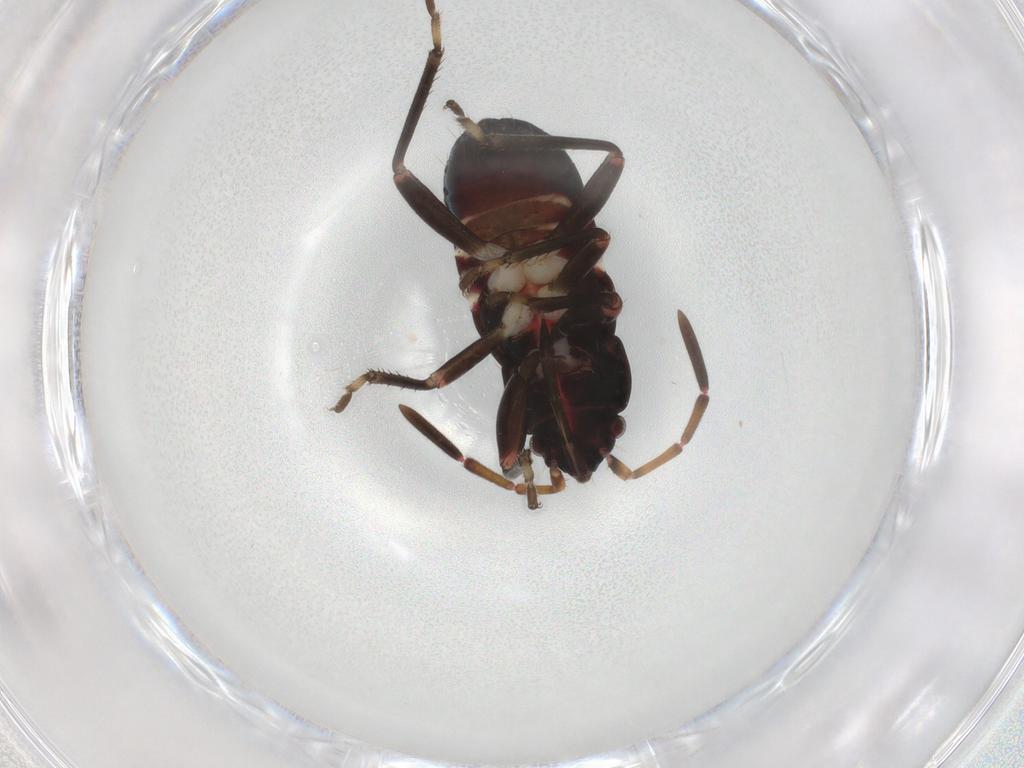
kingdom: Animalia
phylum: Arthropoda
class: Insecta
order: Hemiptera
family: Rhyparochromidae
